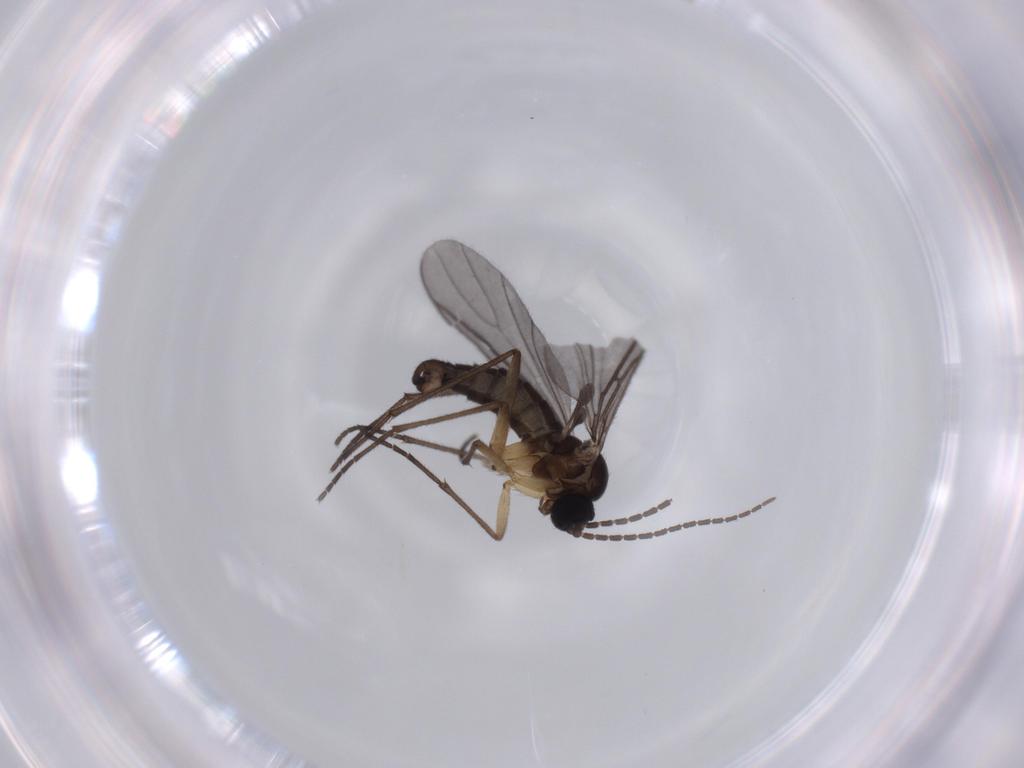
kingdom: Animalia
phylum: Arthropoda
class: Insecta
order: Diptera
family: Sciaridae
